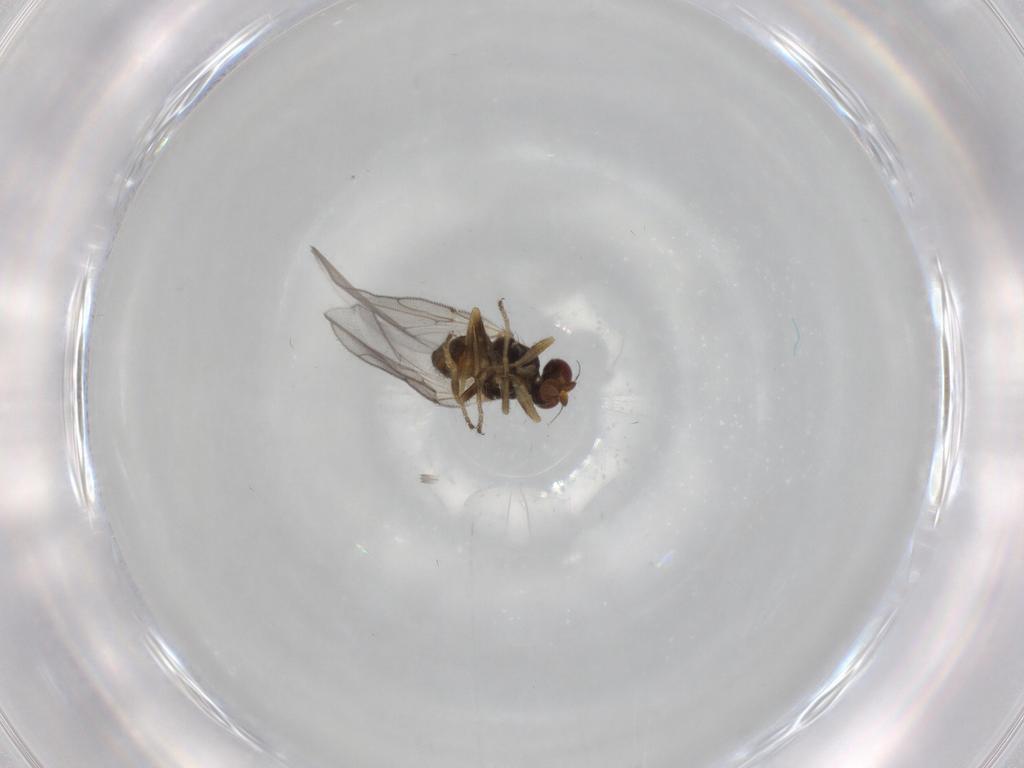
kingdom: Animalia
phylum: Arthropoda
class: Insecta
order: Diptera
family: Chloropidae
